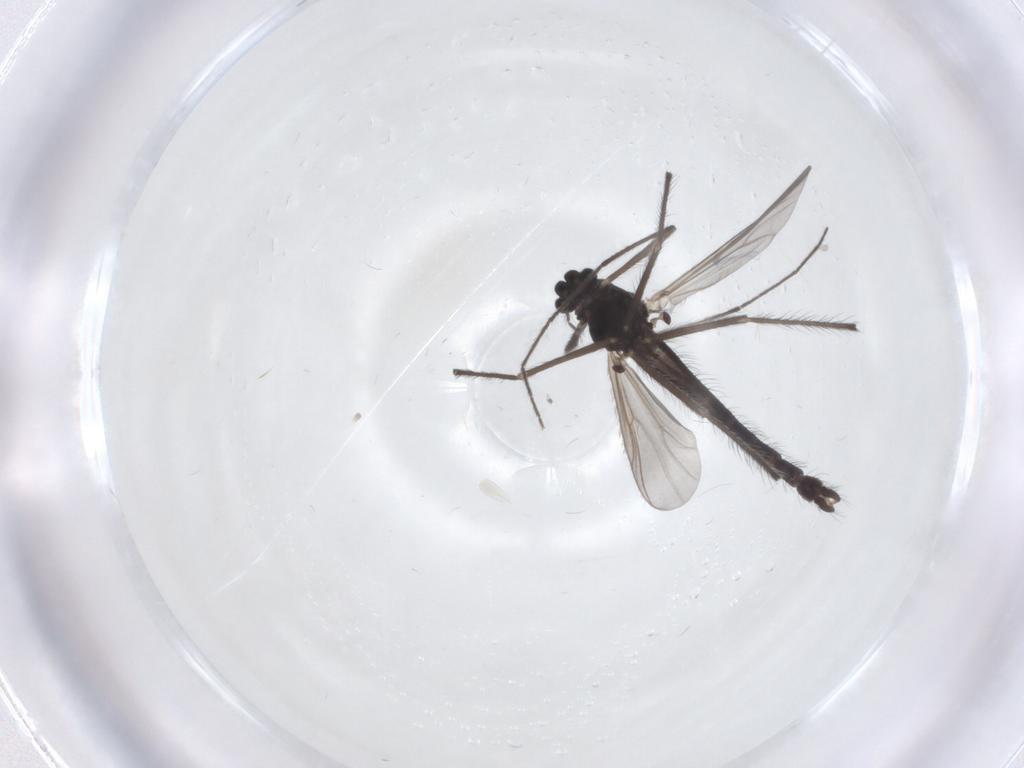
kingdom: Animalia
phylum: Arthropoda
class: Insecta
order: Diptera
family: Chironomidae
